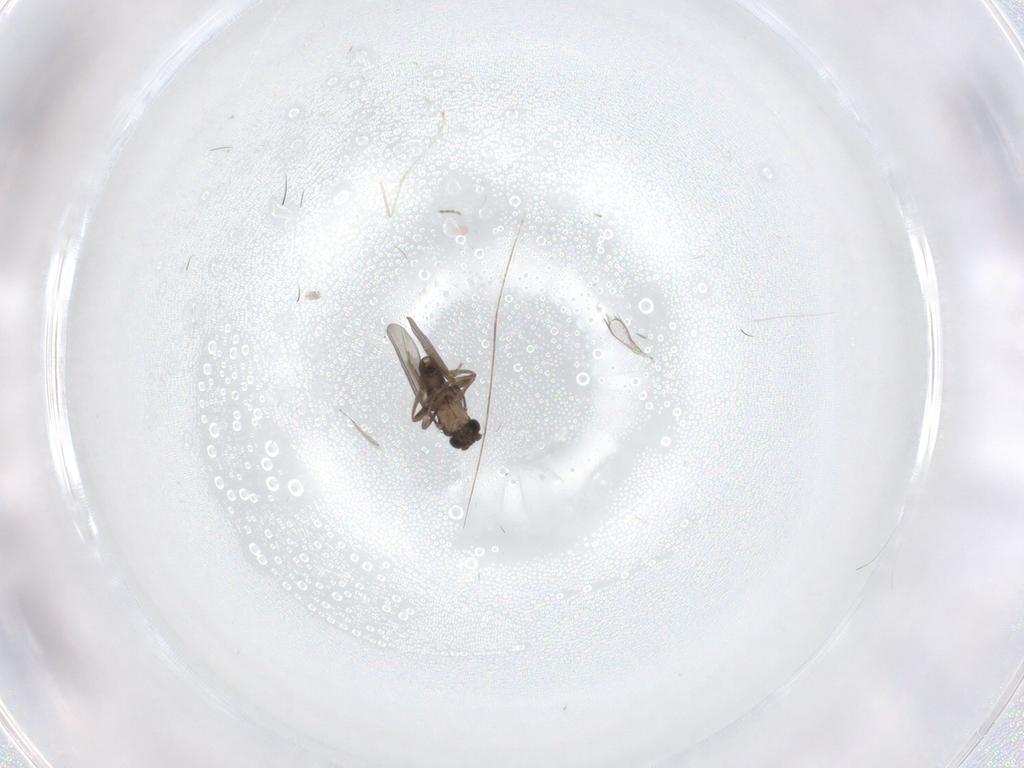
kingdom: Animalia
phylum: Arthropoda
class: Insecta
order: Diptera
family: Cecidomyiidae
